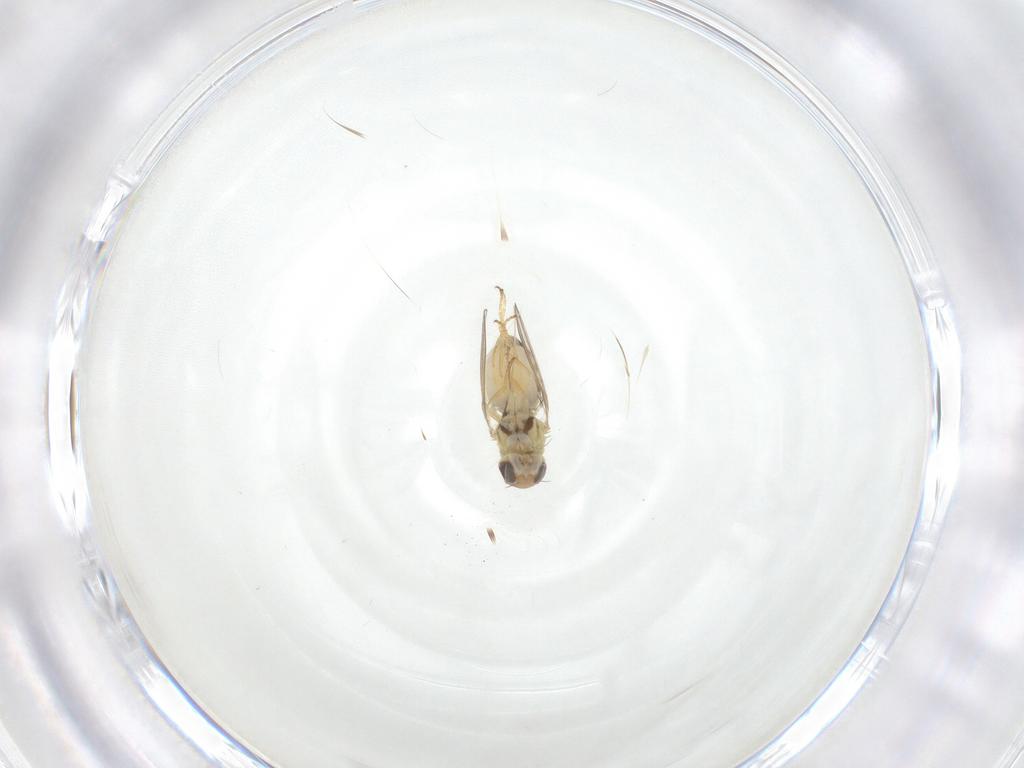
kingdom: Animalia
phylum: Arthropoda
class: Insecta
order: Diptera
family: Chyromyidae
